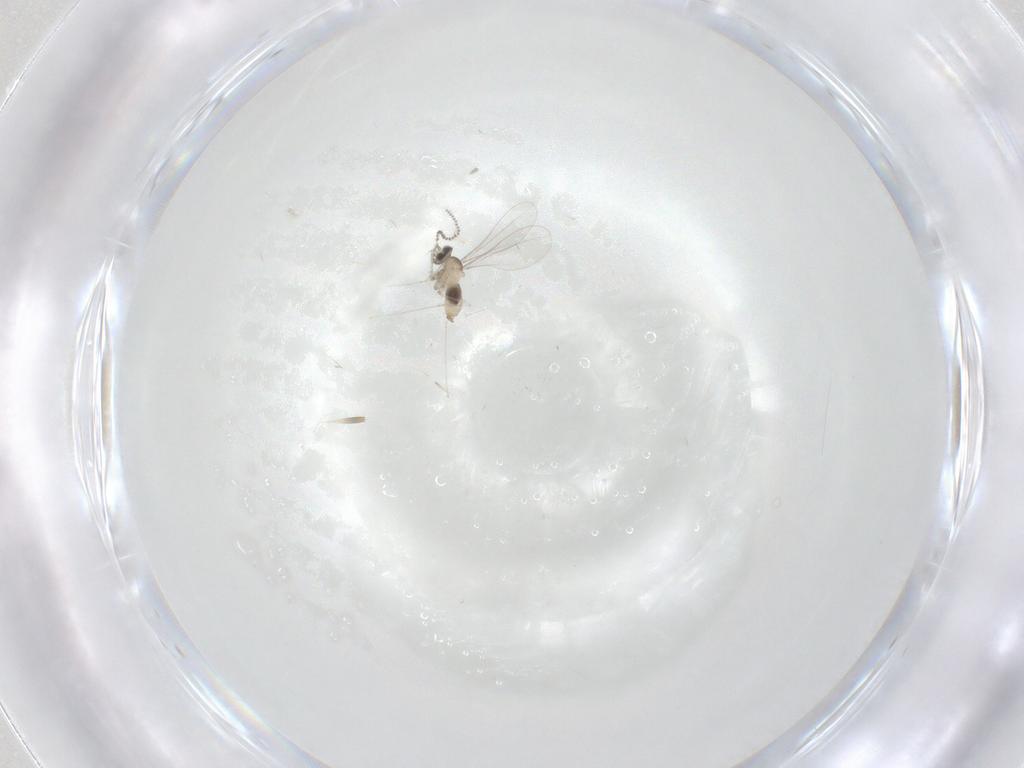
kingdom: Animalia
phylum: Arthropoda
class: Insecta
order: Diptera
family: Cecidomyiidae
